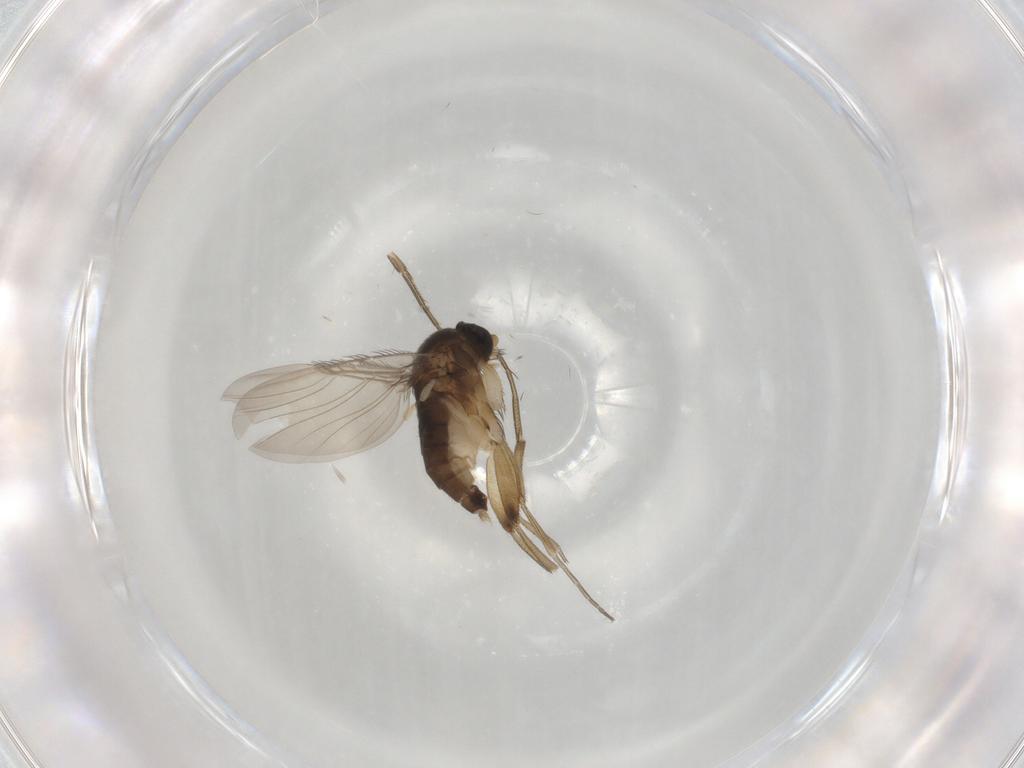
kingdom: Animalia
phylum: Arthropoda
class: Insecta
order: Diptera
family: Phoridae
